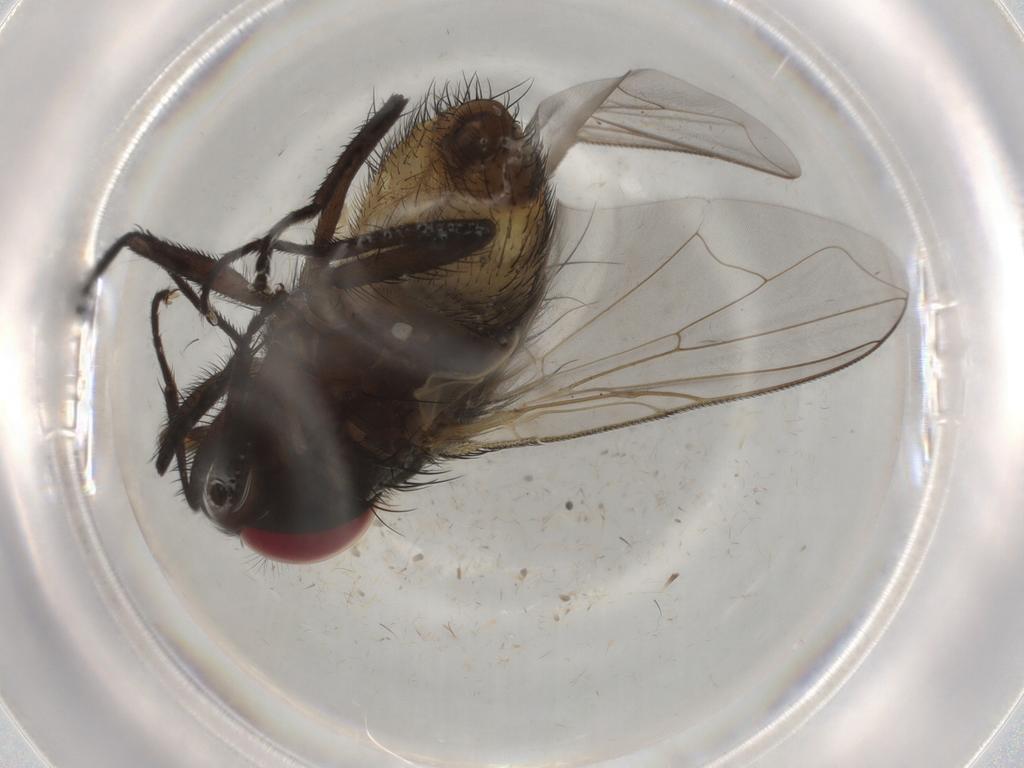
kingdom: Animalia
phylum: Arthropoda
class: Insecta
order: Diptera
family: Muscidae
